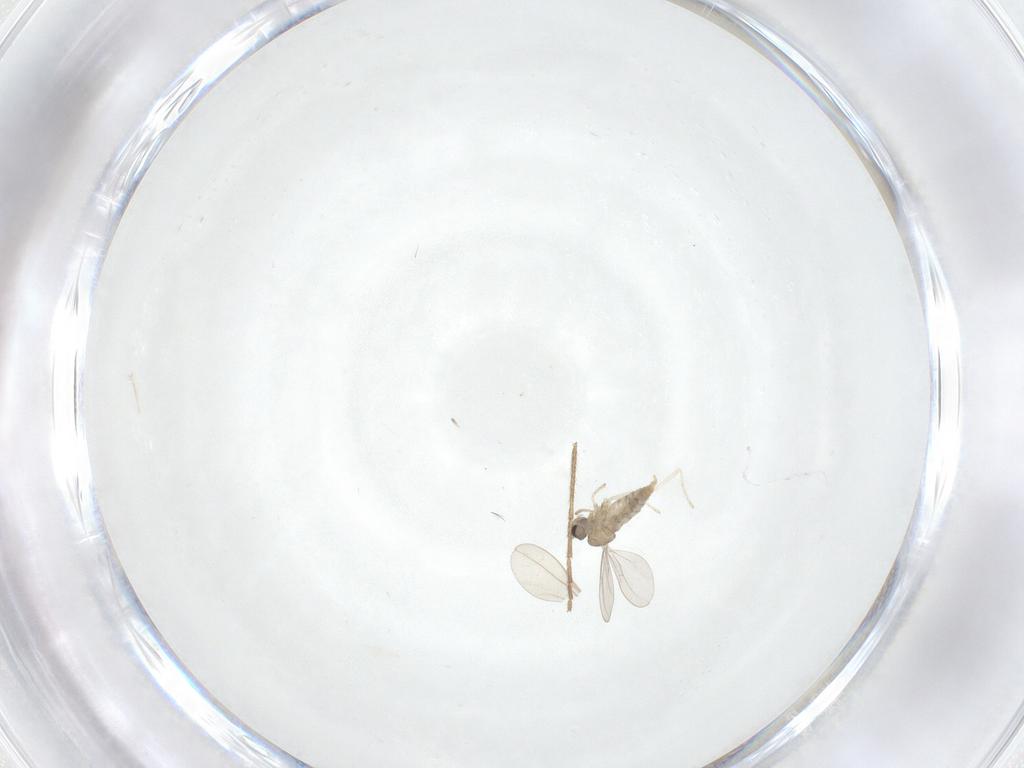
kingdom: Animalia
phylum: Arthropoda
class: Insecta
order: Diptera
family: Cecidomyiidae
